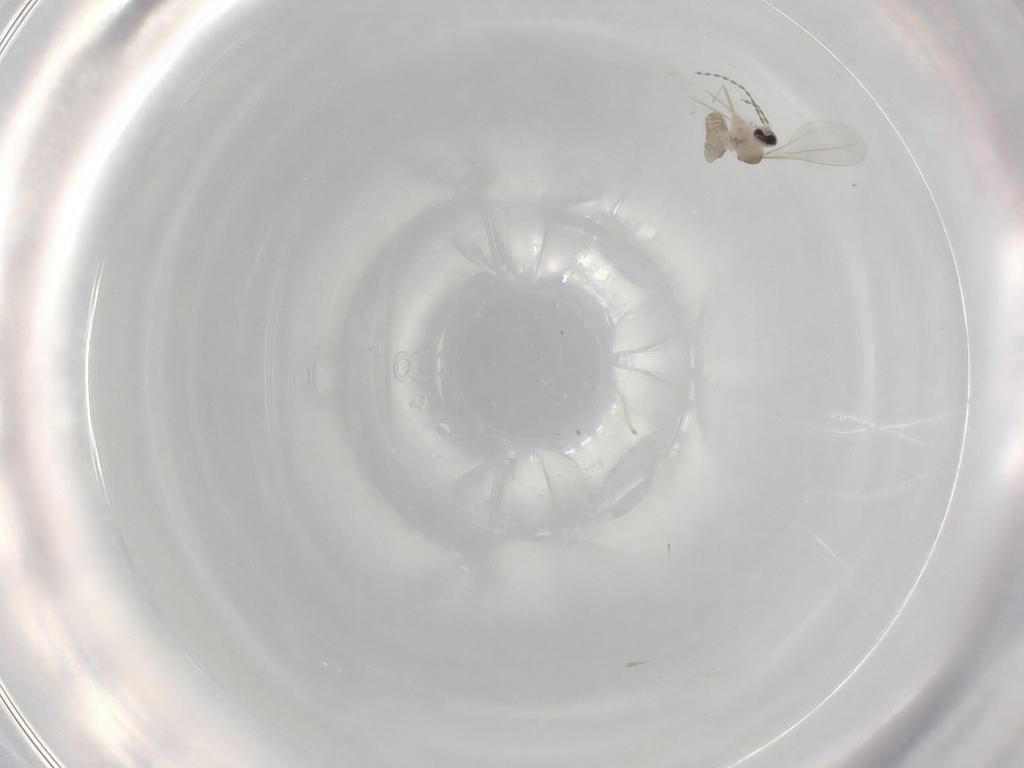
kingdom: Animalia
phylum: Arthropoda
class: Insecta
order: Diptera
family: Cecidomyiidae
